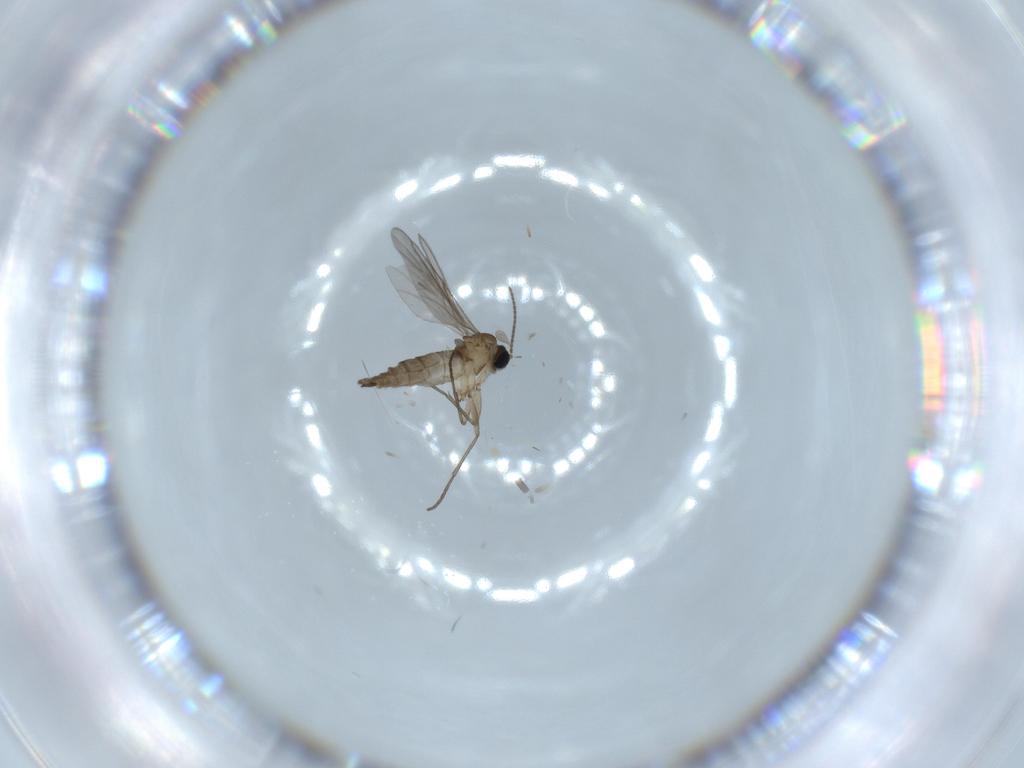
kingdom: Animalia
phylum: Arthropoda
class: Insecta
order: Diptera
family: Sciaridae
